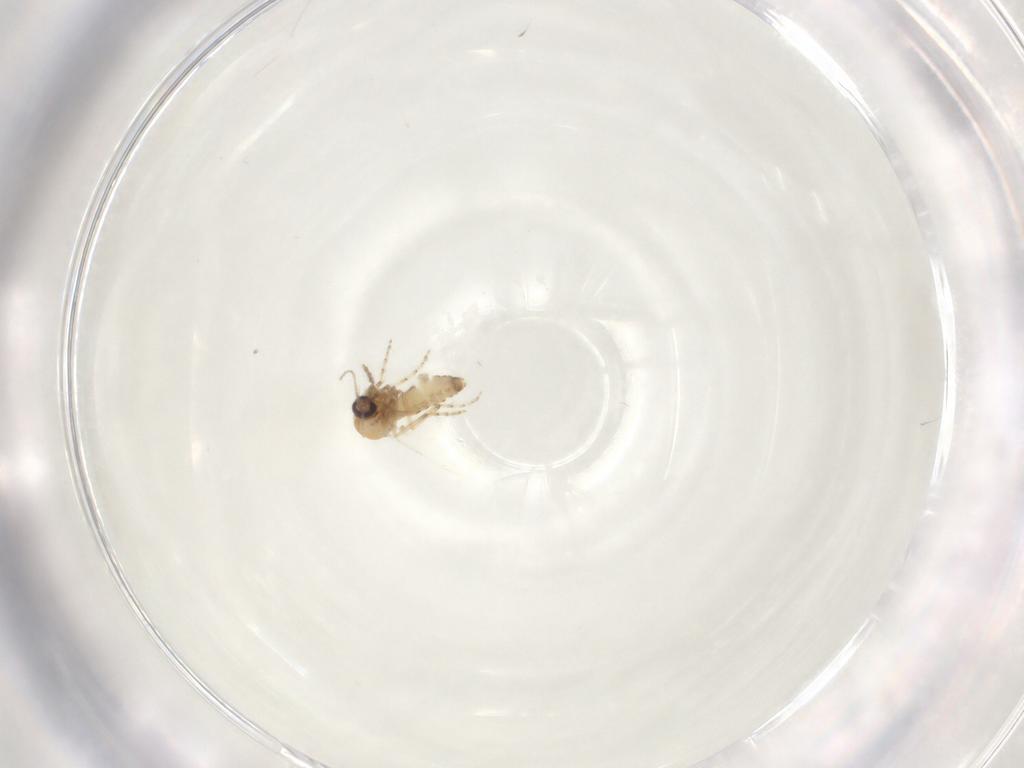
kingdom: Animalia
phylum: Arthropoda
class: Insecta
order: Diptera
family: Ceratopogonidae
